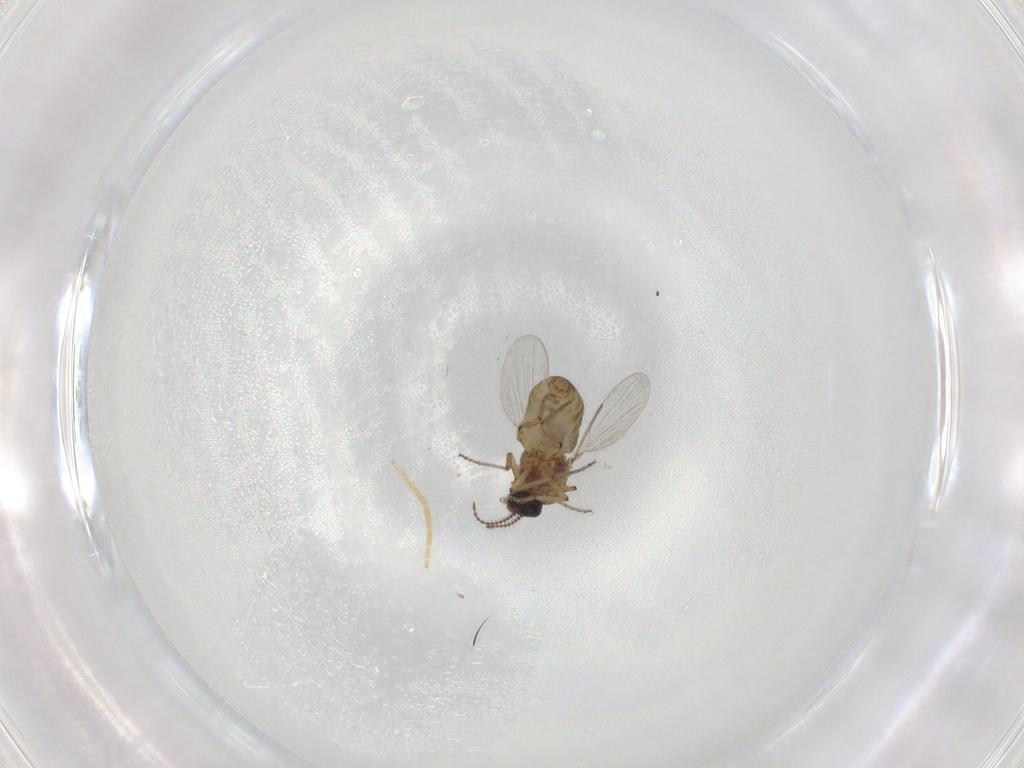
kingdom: Animalia
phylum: Arthropoda
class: Insecta
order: Diptera
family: Ceratopogonidae
